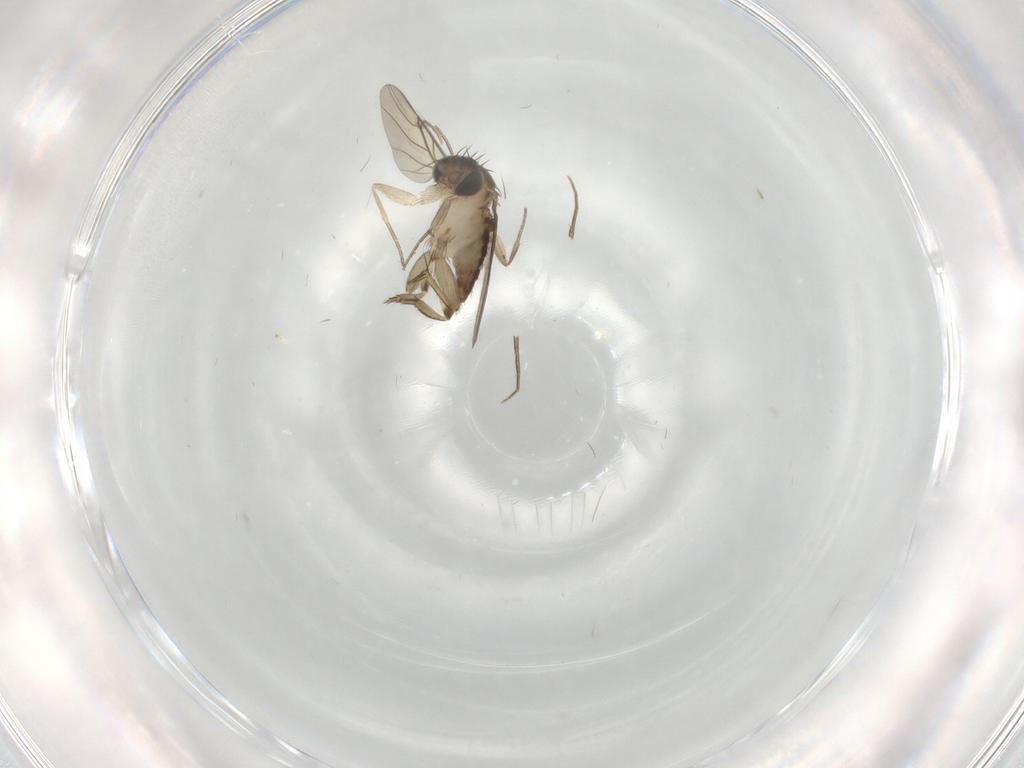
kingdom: Animalia
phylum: Arthropoda
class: Insecta
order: Diptera
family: Phoridae
